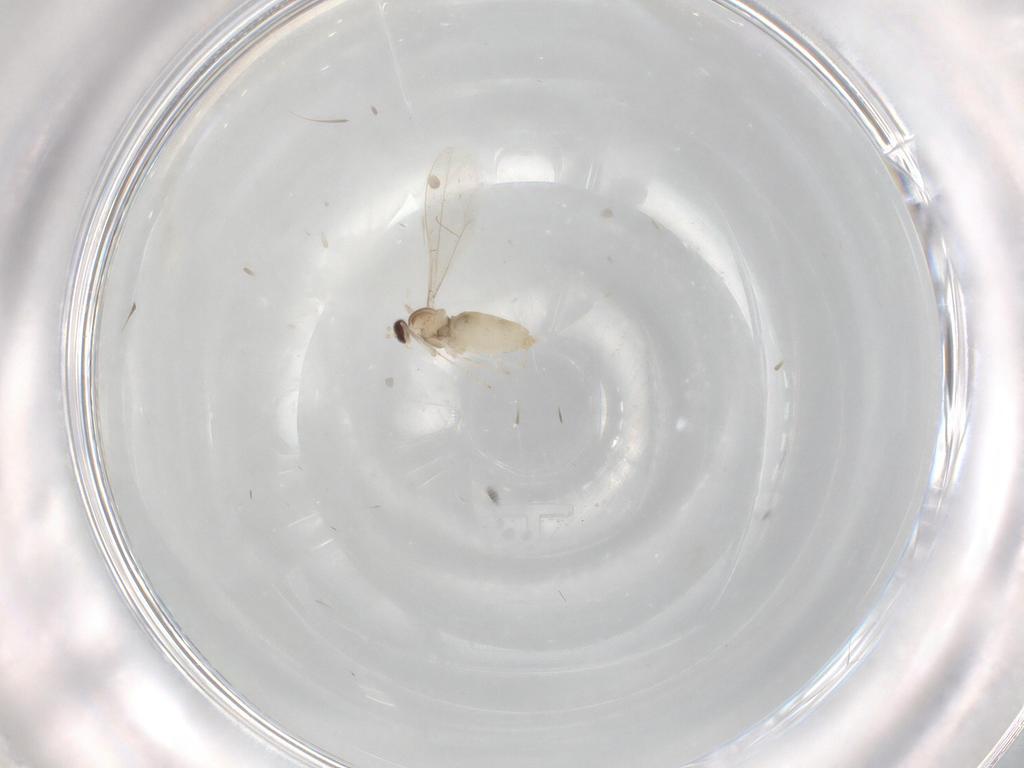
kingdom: Animalia
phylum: Arthropoda
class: Insecta
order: Diptera
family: Cecidomyiidae
